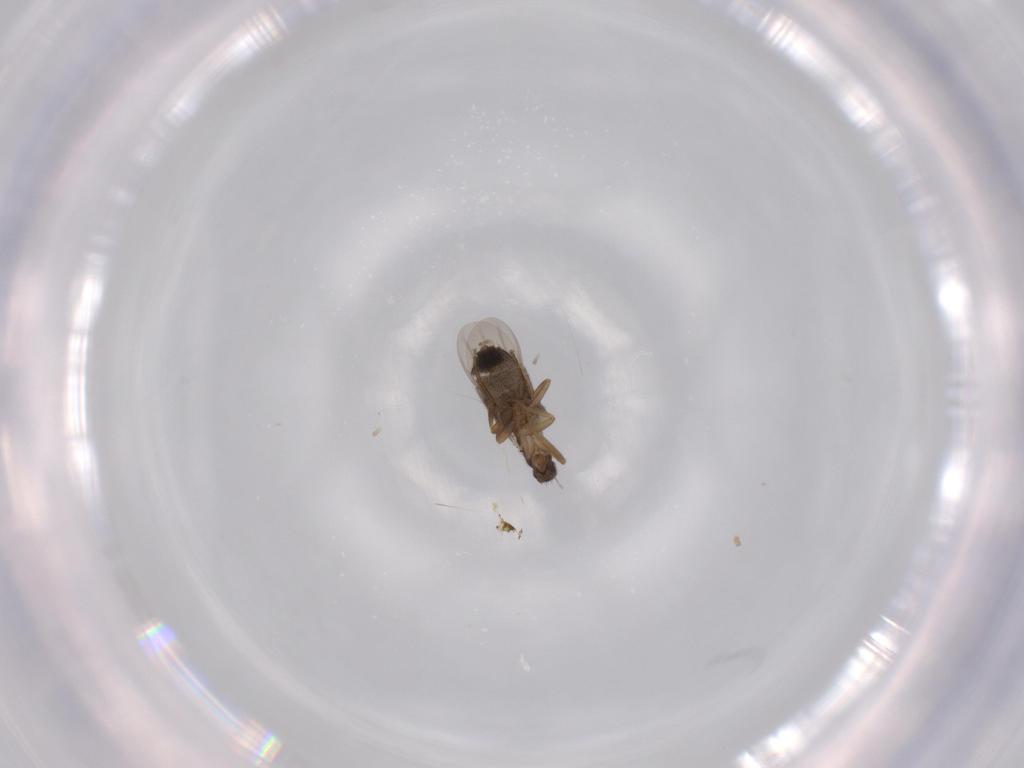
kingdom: Animalia
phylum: Arthropoda
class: Insecta
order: Diptera
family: Phoridae
